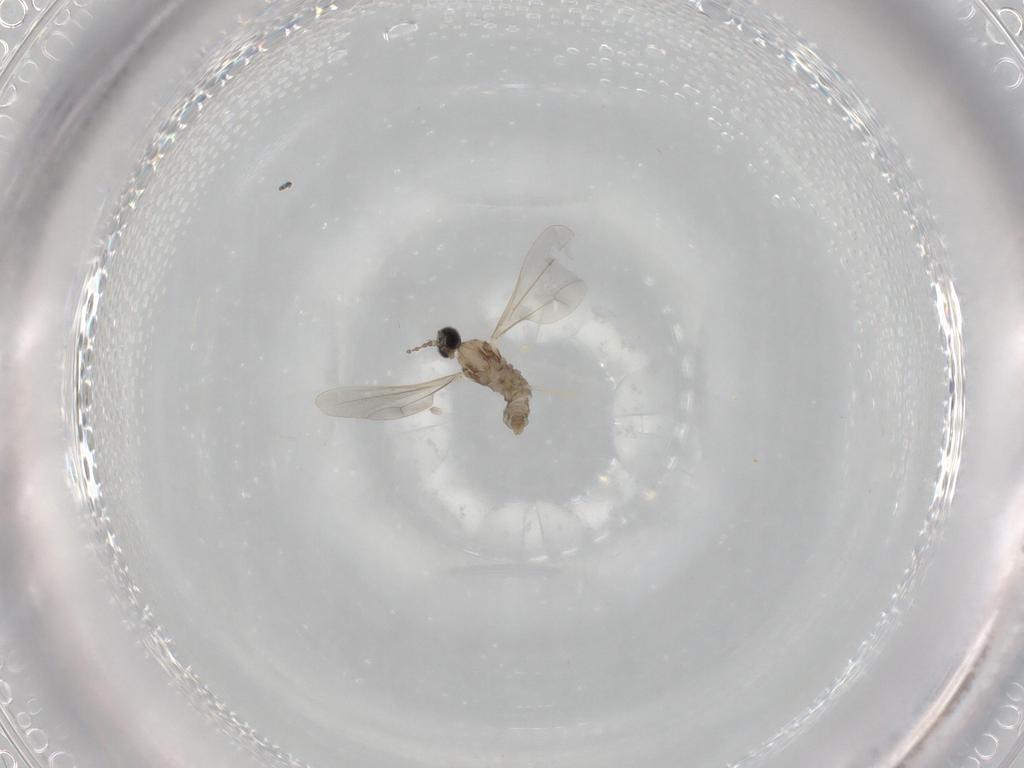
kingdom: Animalia
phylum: Arthropoda
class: Insecta
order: Diptera
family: Cecidomyiidae
